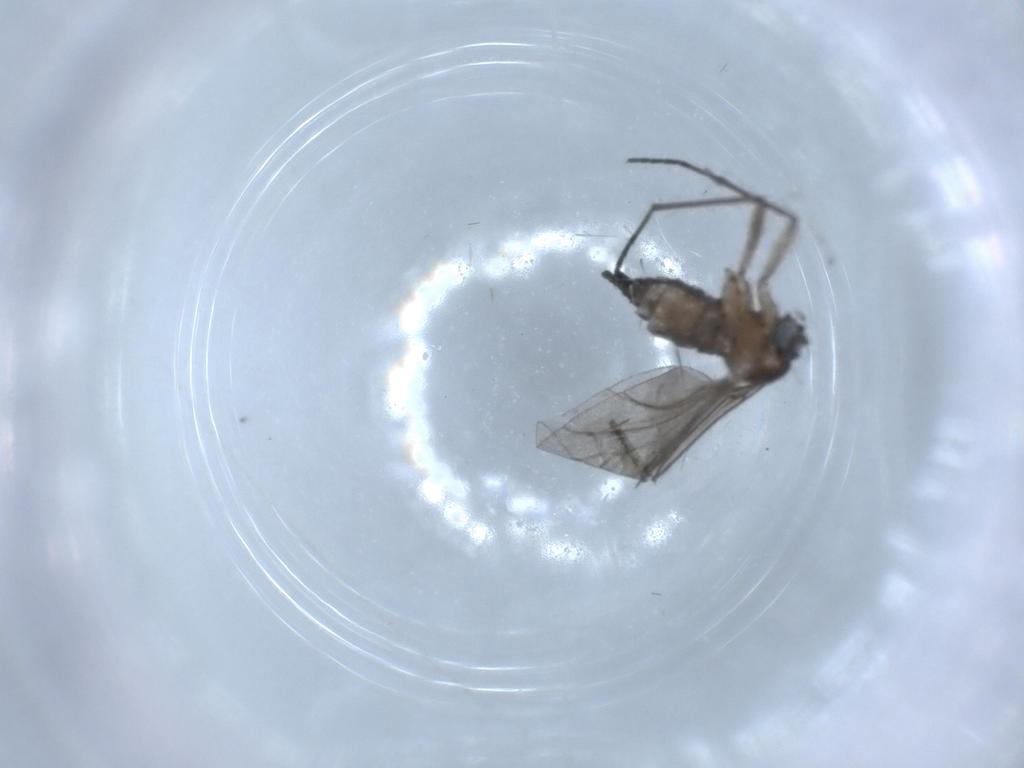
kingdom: Animalia
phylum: Arthropoda
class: Insecta
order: Diptera
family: Sciaridae
